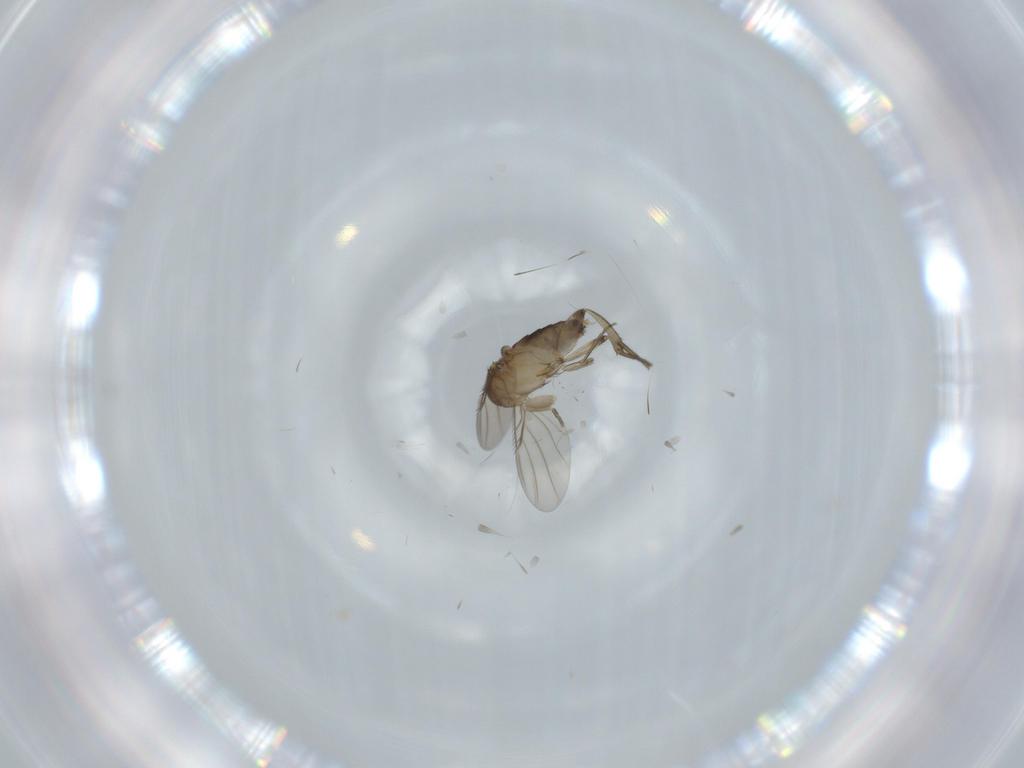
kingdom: Animalia
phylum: Arthropoda
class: Insecta
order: Diptera
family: Phoridae
